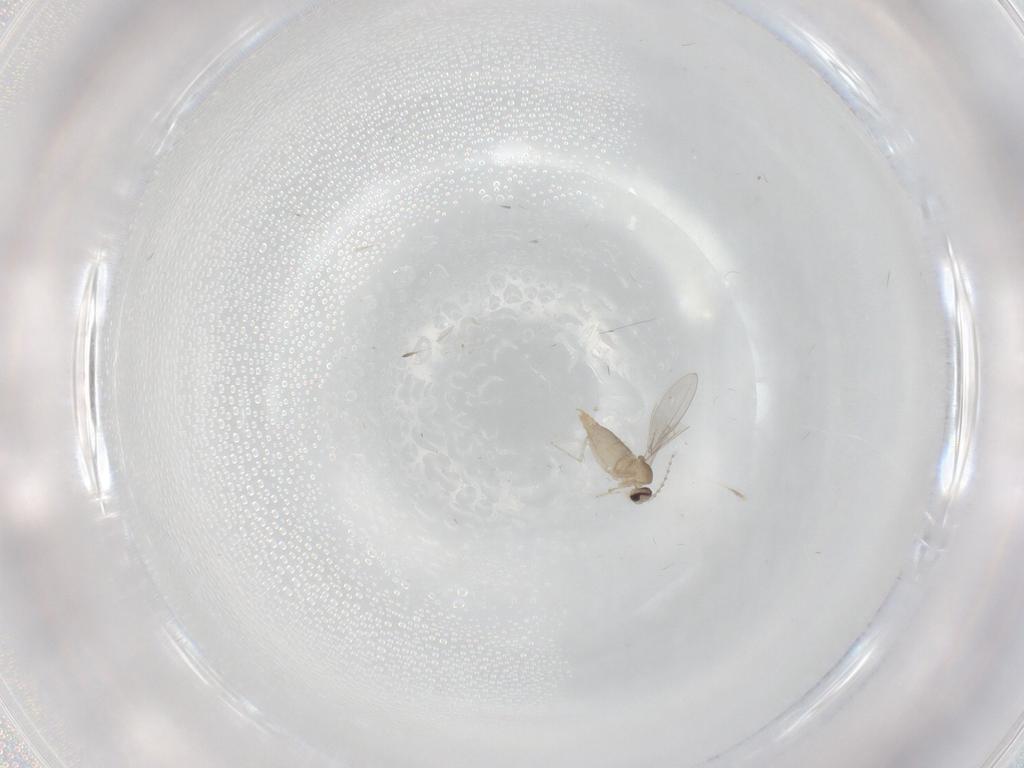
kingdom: Animalia
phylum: Arthropoda
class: Insecta
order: Diptera
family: Cecidomyiidae
